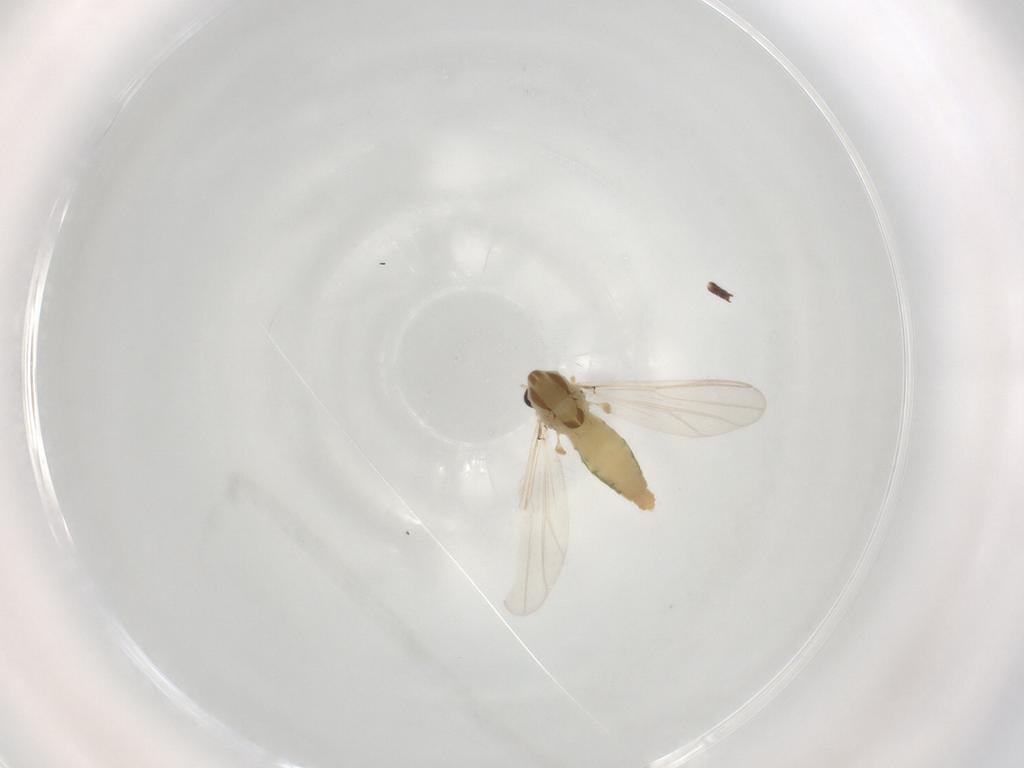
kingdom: Animalia
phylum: Arthropoda
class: Insecta
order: Diptera
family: Chironomidae
